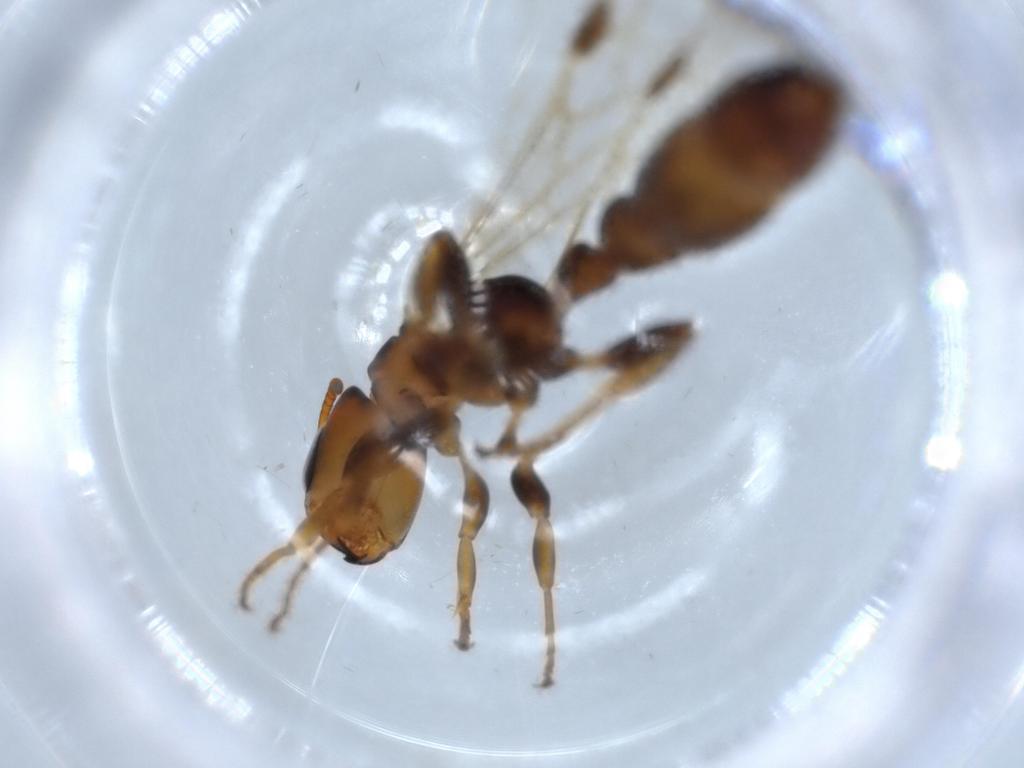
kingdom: Animalia
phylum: Arthropoda
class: Insecta
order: Hymenoptera
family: Formicidae
